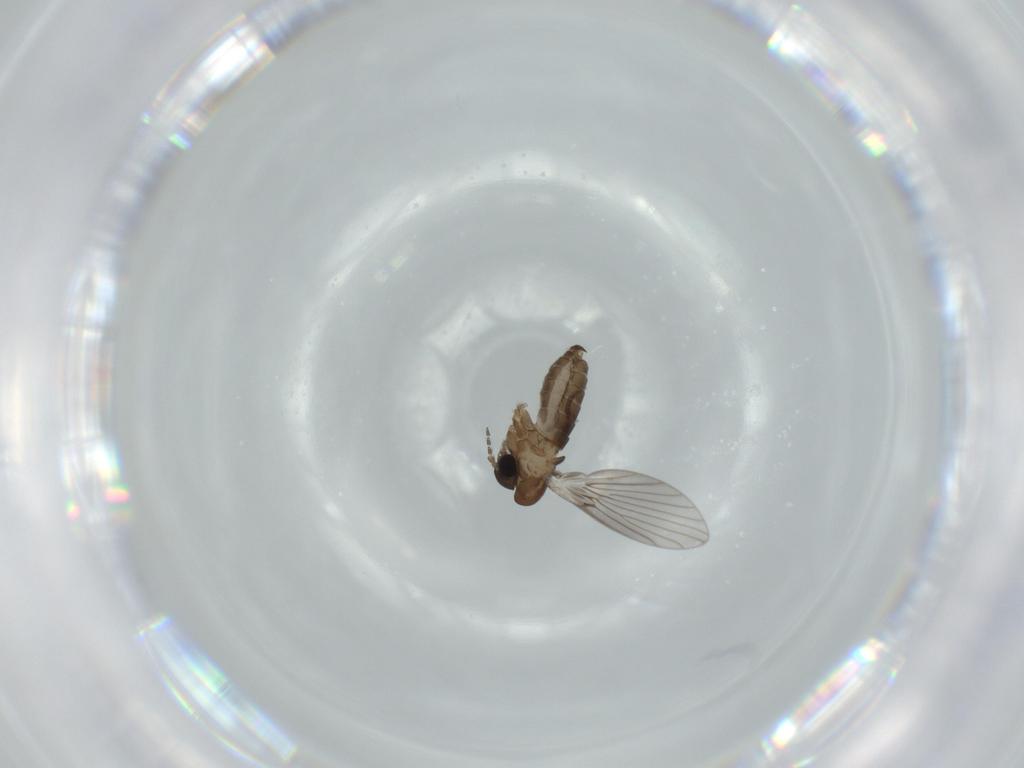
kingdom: Animalia
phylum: Arthropoda
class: Insecta
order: Diptera
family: Psychodidae
